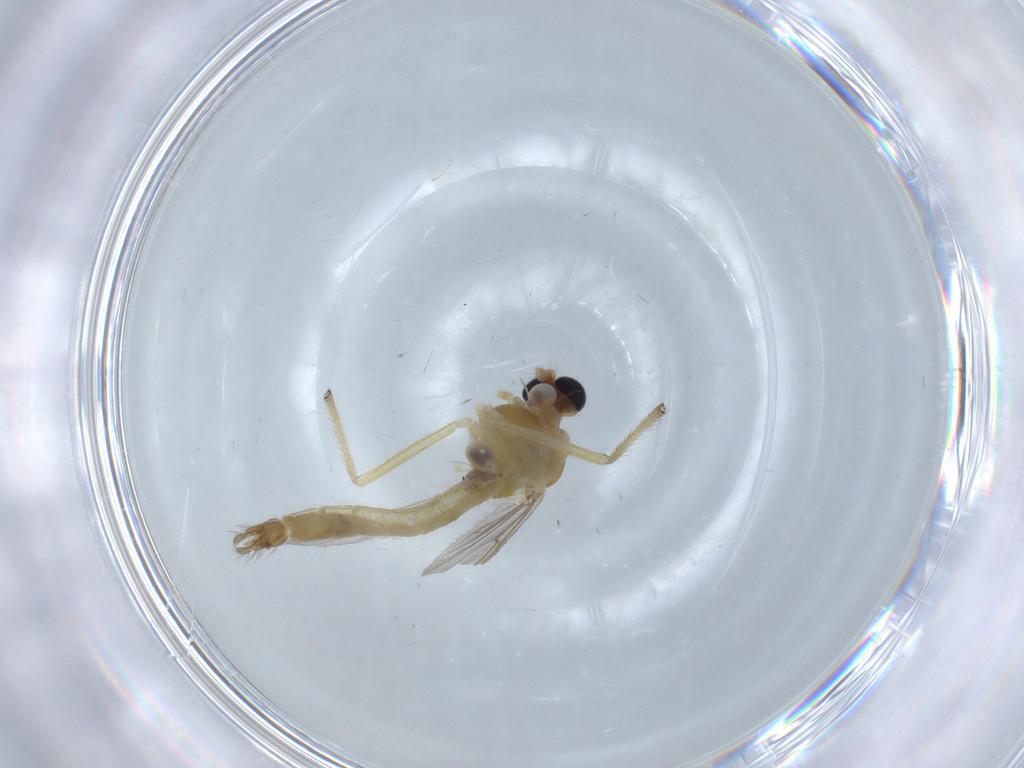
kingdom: Animalia
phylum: Arthropoda
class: Insecta
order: Diptera
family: Chironomidae
